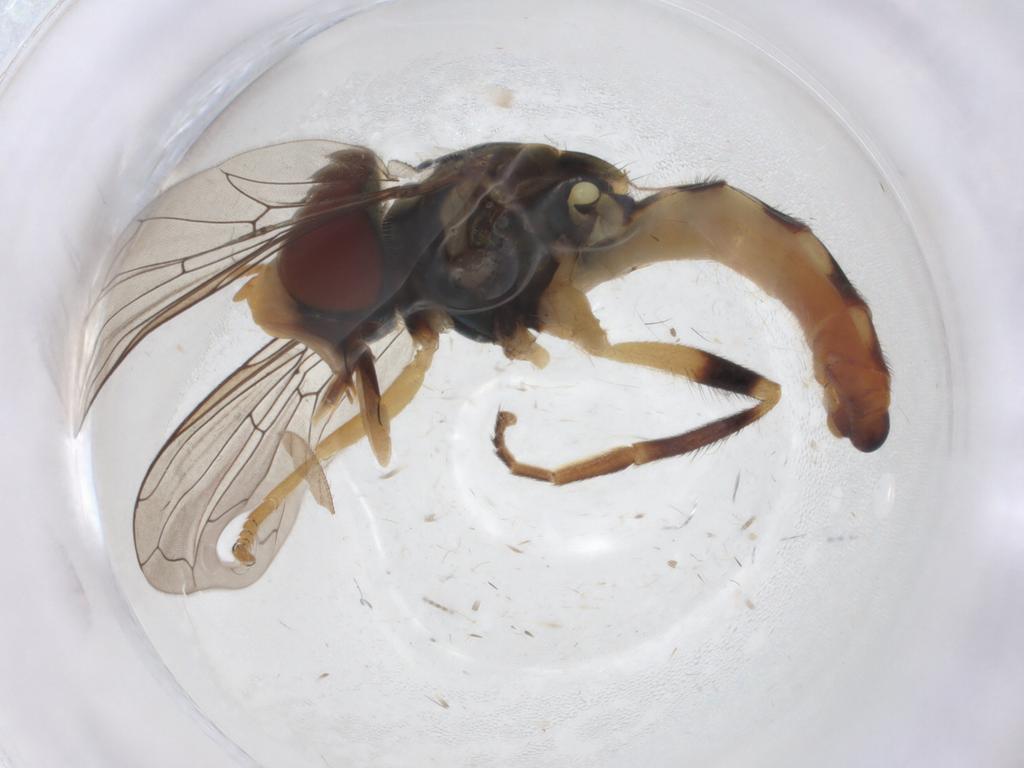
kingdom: Animalia
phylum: Arthropoda
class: Insecta
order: Diptera
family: Syrphidae
